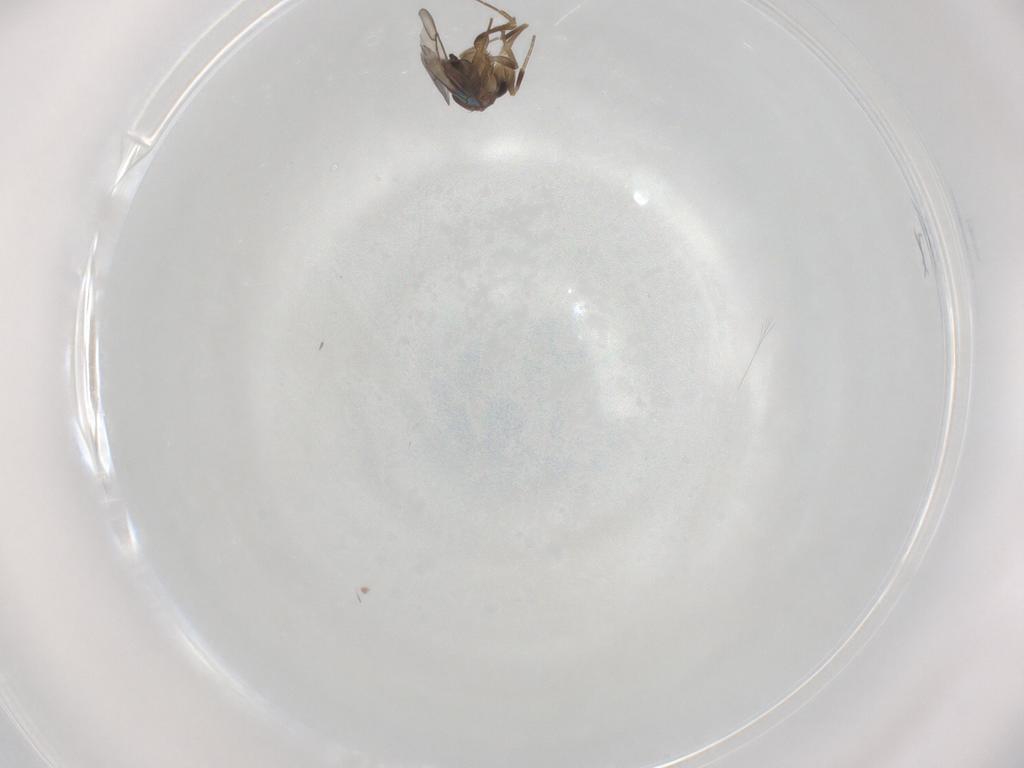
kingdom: Animalia
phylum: Arthropoda
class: Insecta
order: Diptera
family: Phoridae
